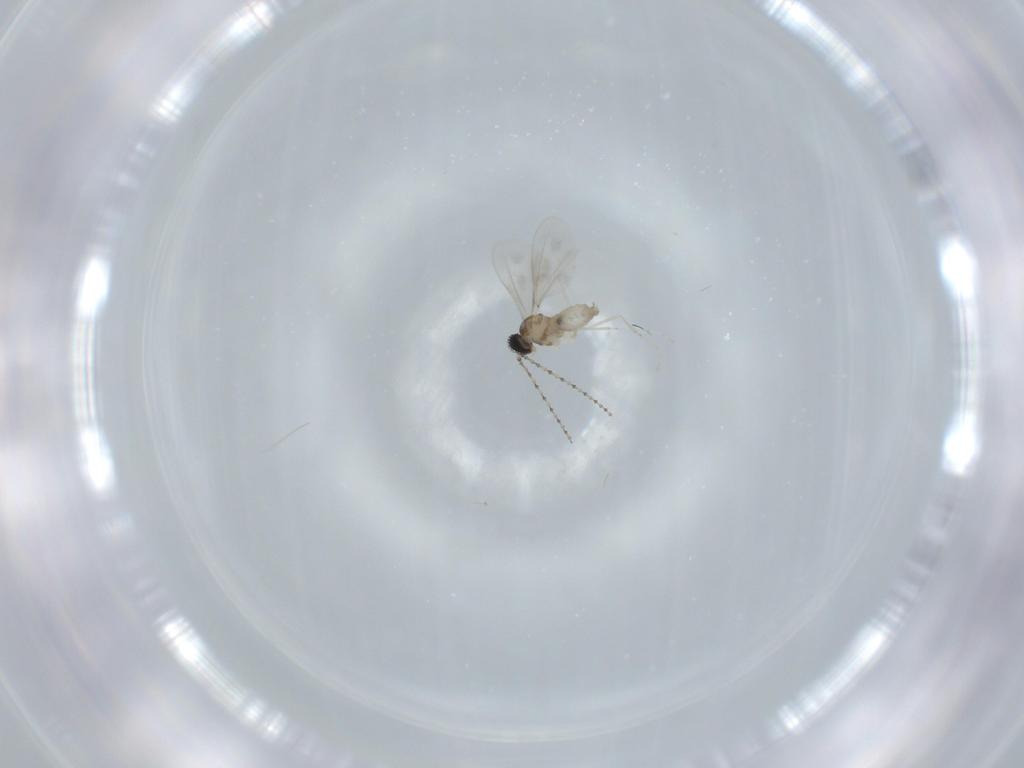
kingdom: Animalia
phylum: Arthropoda
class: Insecta
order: Diptera
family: Cecidomyiidae
